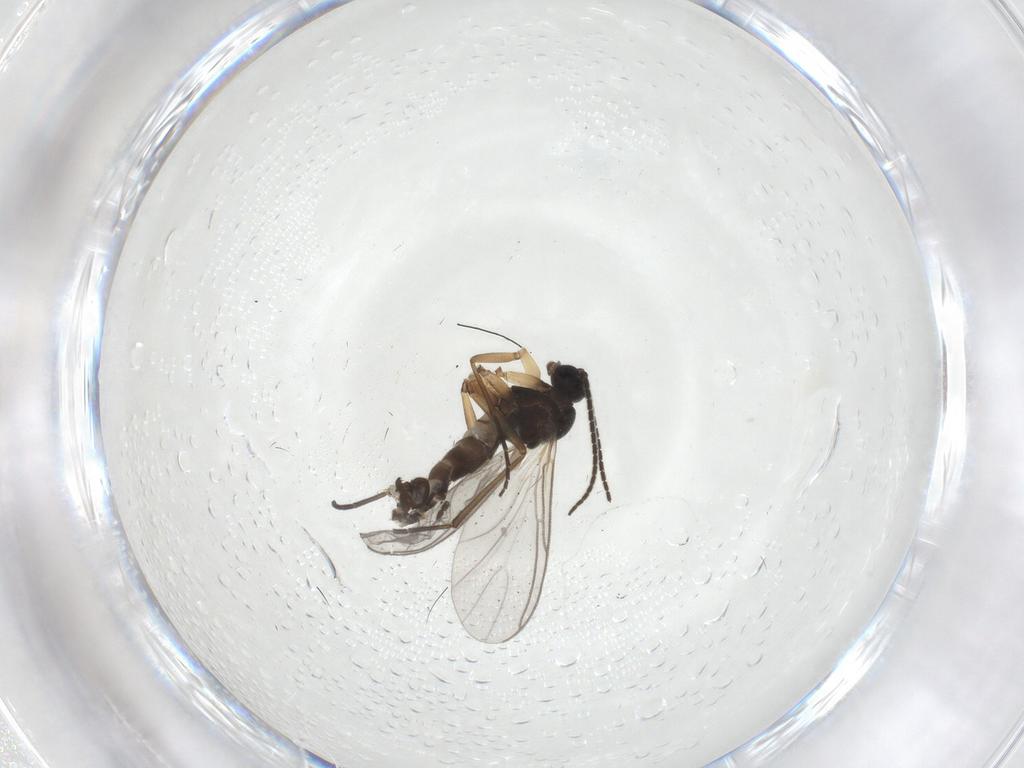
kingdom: Animalia
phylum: Arthropoda
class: Insecta
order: Diptera
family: Sciaridae
